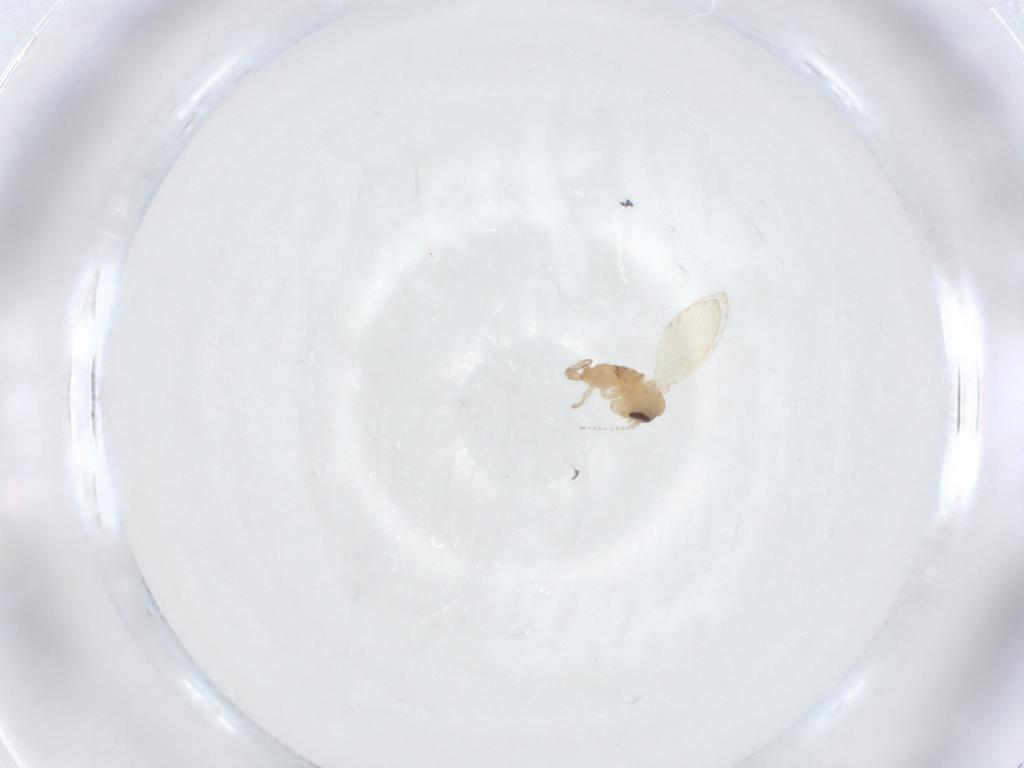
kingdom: Animalia
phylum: Arthropoda
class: Insecta
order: Diptera
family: Psychodidae
